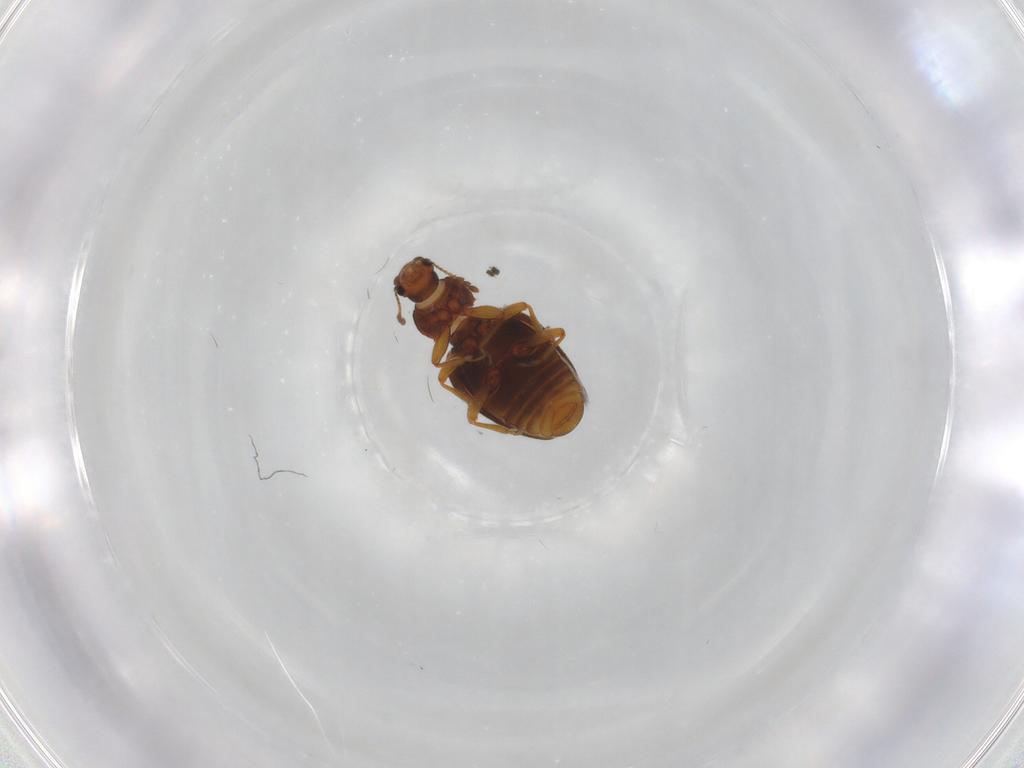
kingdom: Animalia
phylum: Arthropoda
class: Insecta
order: Coleoptera
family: Latridiidae
